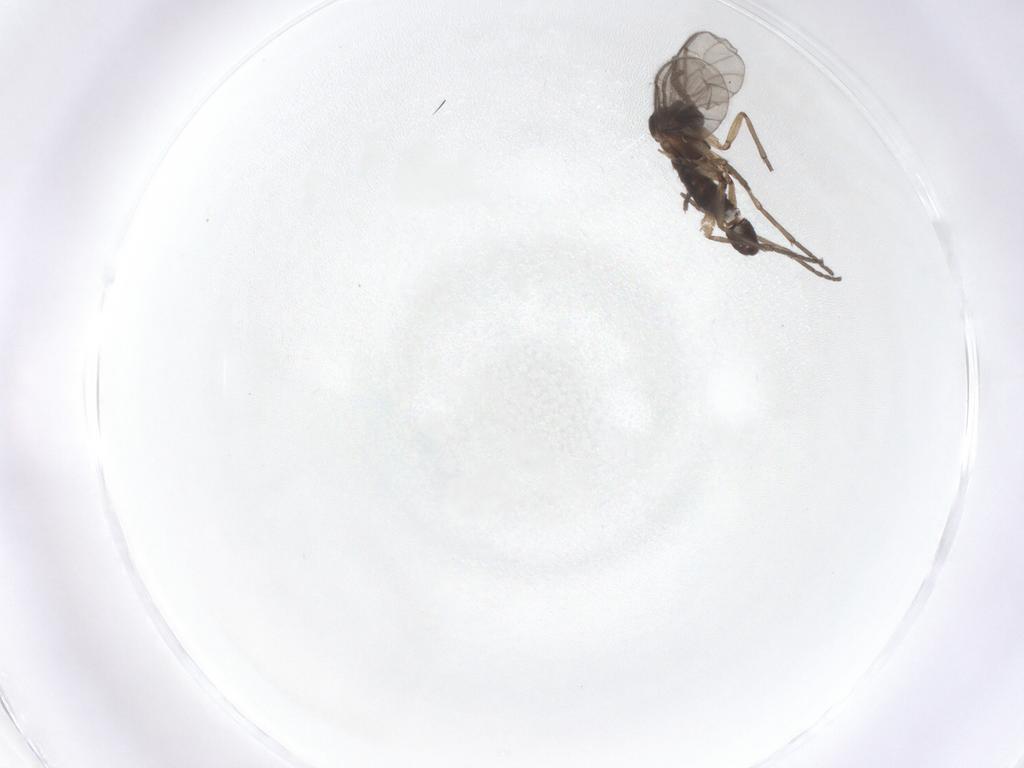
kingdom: Animalia
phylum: Arthropoda
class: Insecta
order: Diptera
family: Sciaridae
